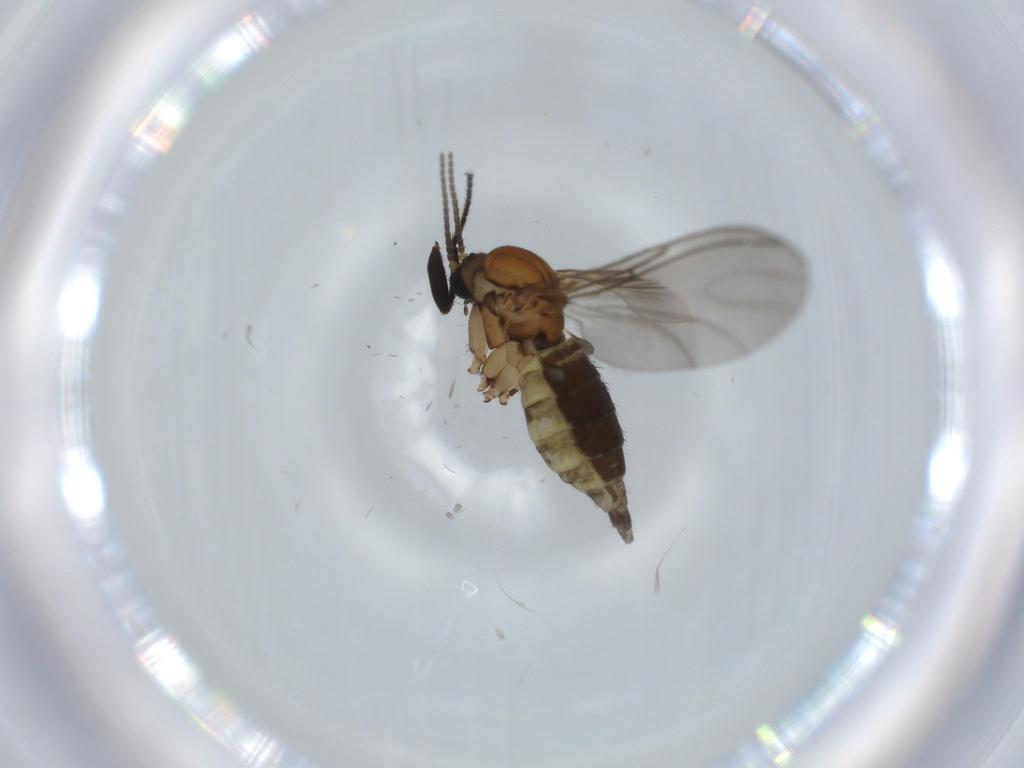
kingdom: Animalia
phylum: Arthropoda
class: Insecta
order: Diptera
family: Sciaridae
